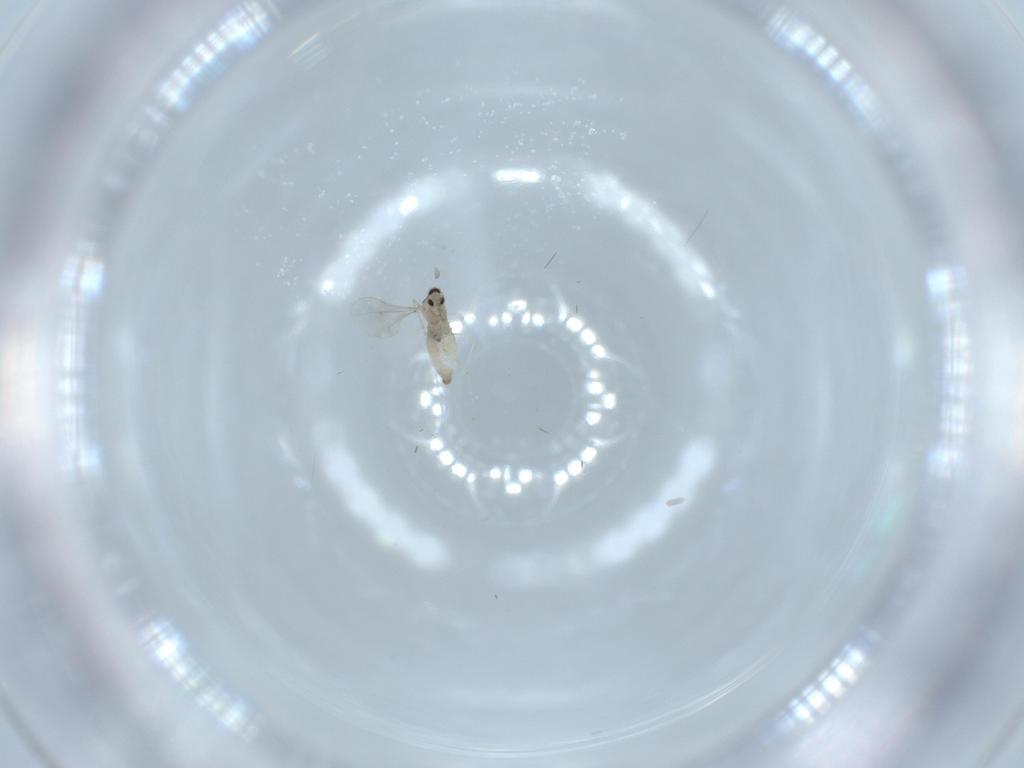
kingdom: Animalia
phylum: Arthropoda
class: Insecta
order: Diptera
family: Cecidomyiidae
